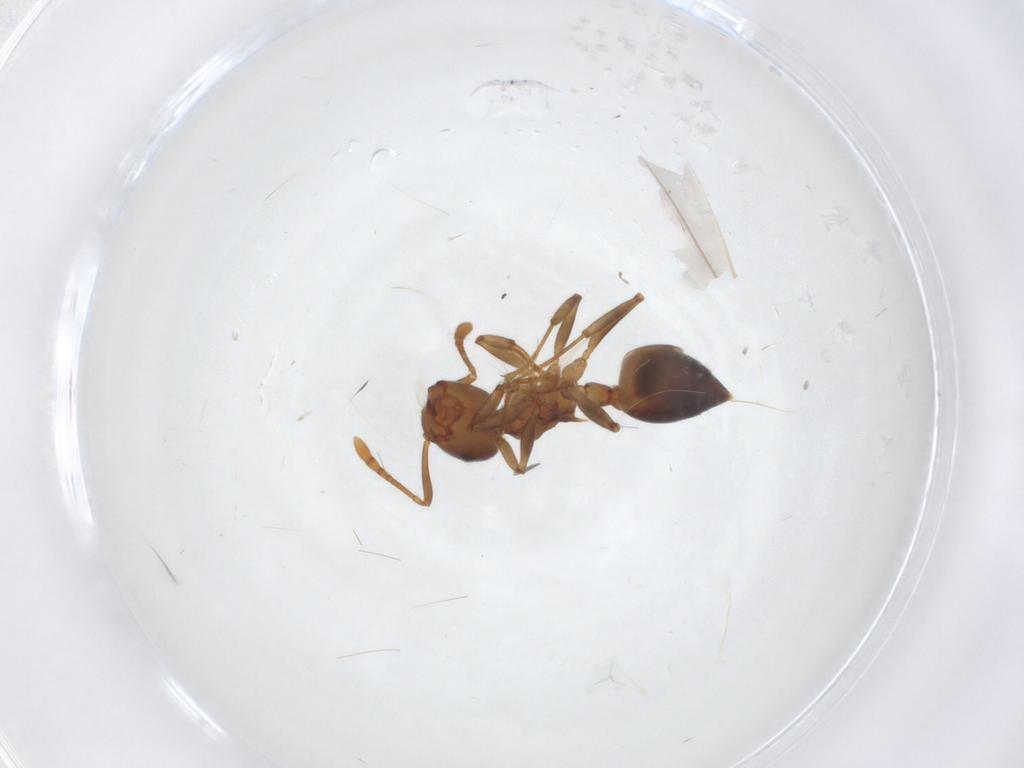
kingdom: Animalia
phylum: Arthropoda
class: Insecta
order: Hymenoptera
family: Formicidae
